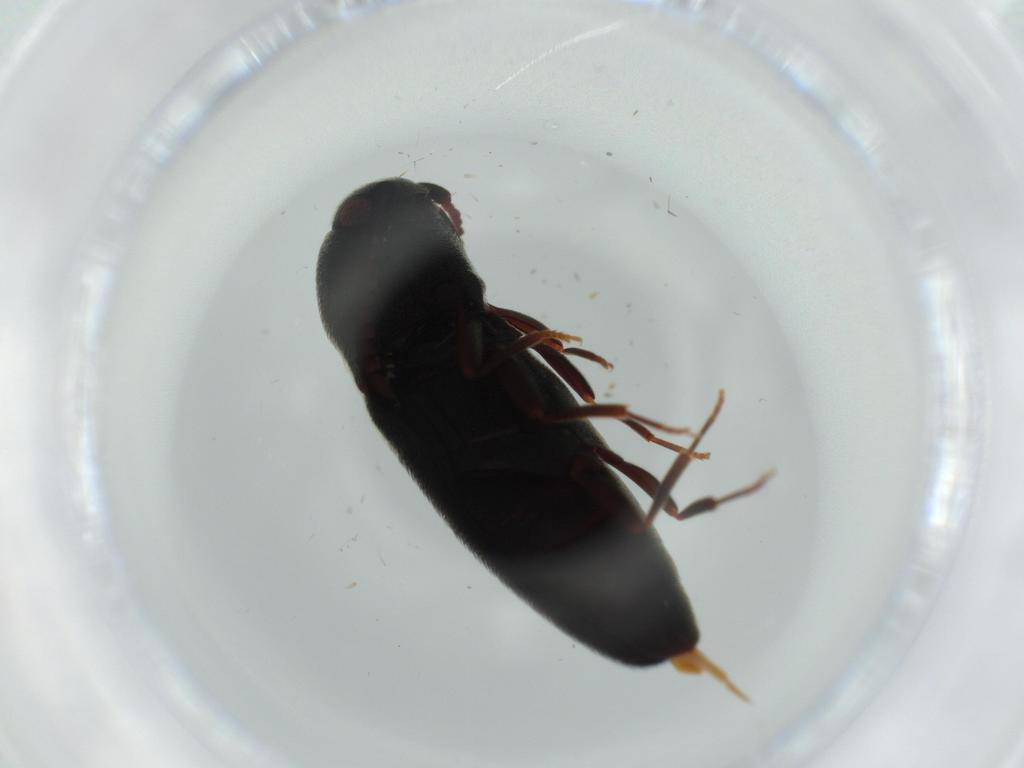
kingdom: Animalia
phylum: Arthropoda
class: Insecta
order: Coleoptera
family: Eucnemidae
